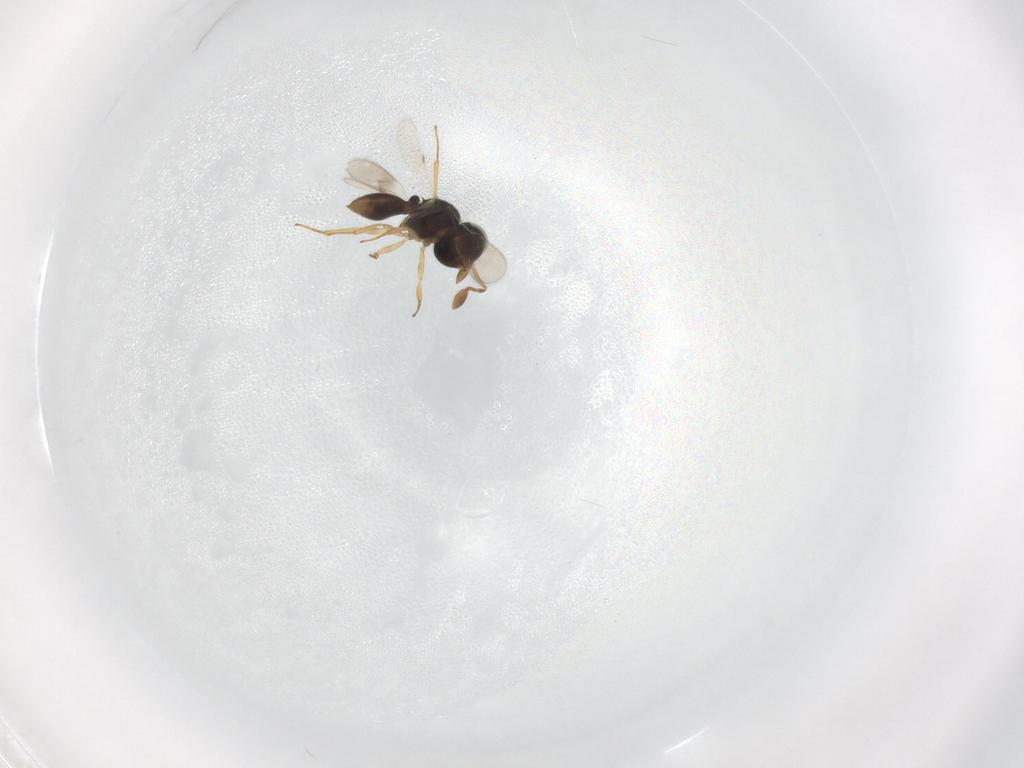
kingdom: Animalia
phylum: Arthropoda
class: Insecta
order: Hymenoptera
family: Scelionidae
